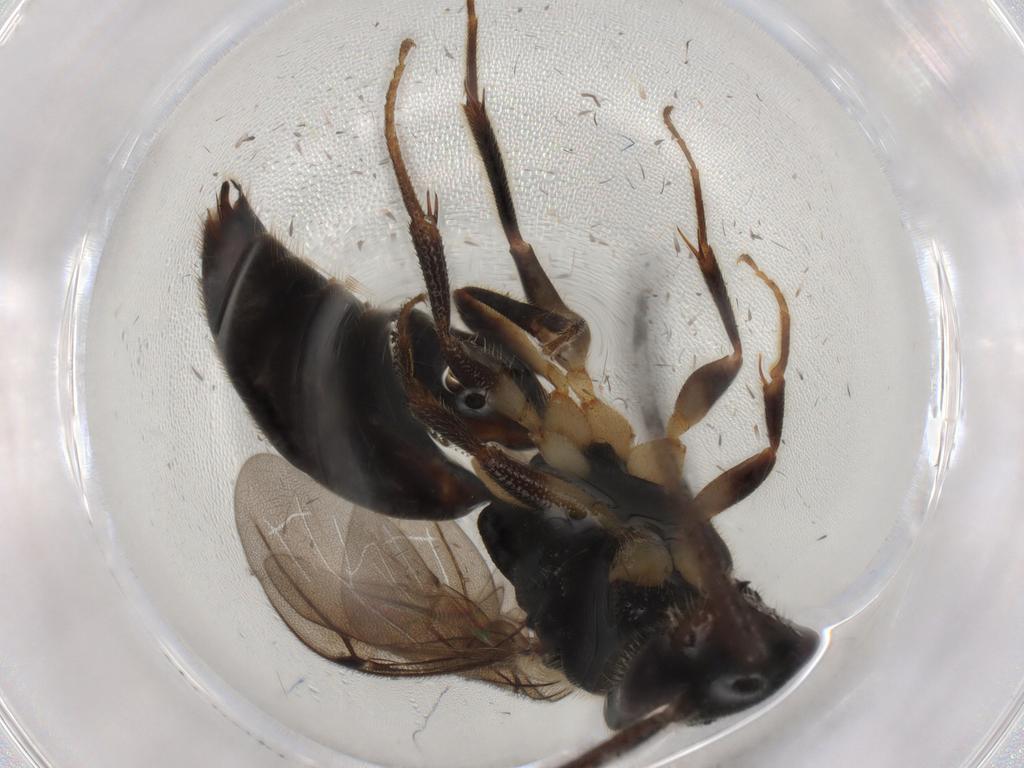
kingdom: Animalia
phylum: Arthropoda
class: Insecta
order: Hymenoptera
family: Bethylidae
